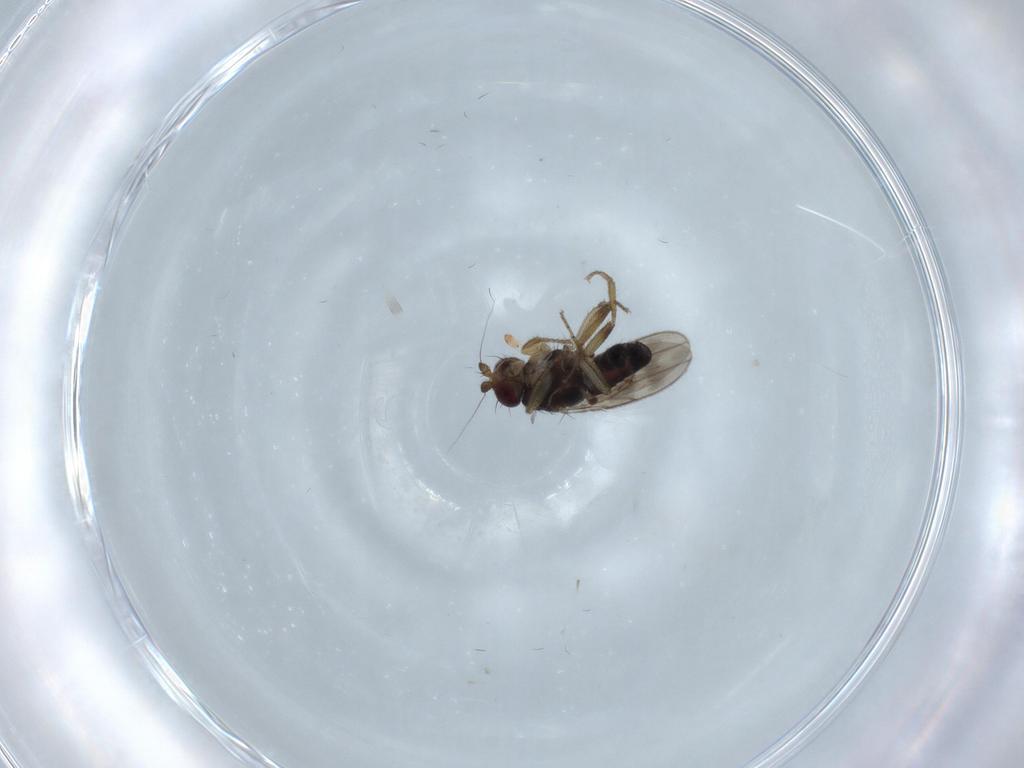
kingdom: Animalia
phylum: Arthropoda
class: Insecta
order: Diptera
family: Sphaeroceridae
